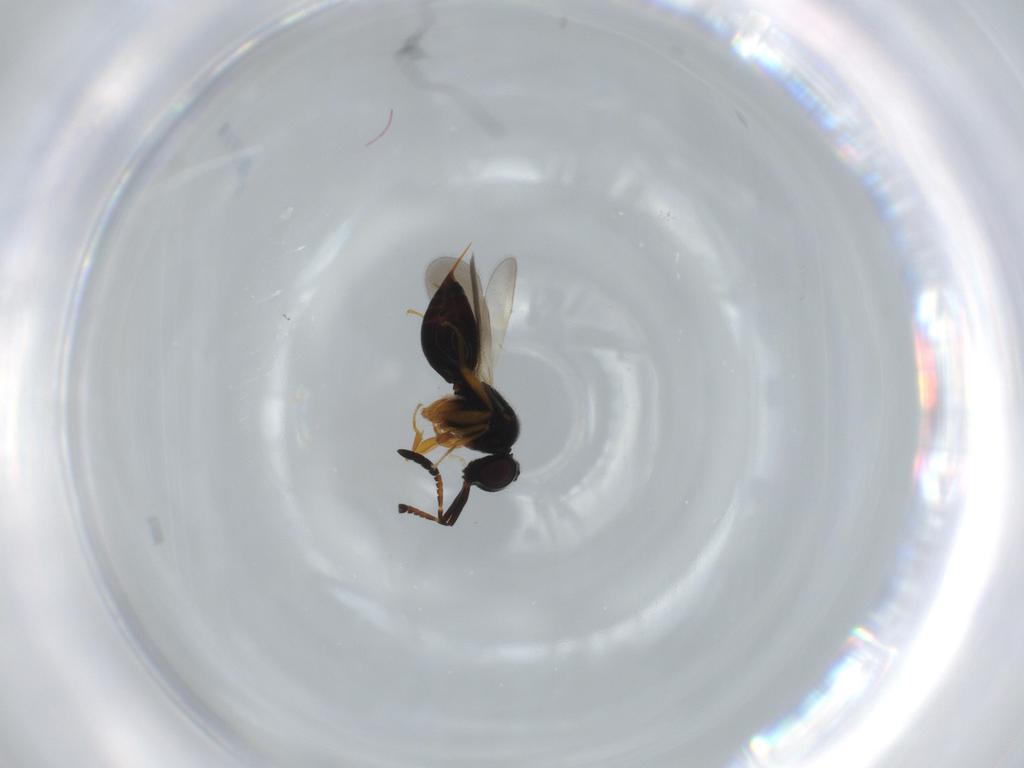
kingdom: Animalia
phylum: Arthropoda
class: Insecta
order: Hymenoptera
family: Ceraphronidae
